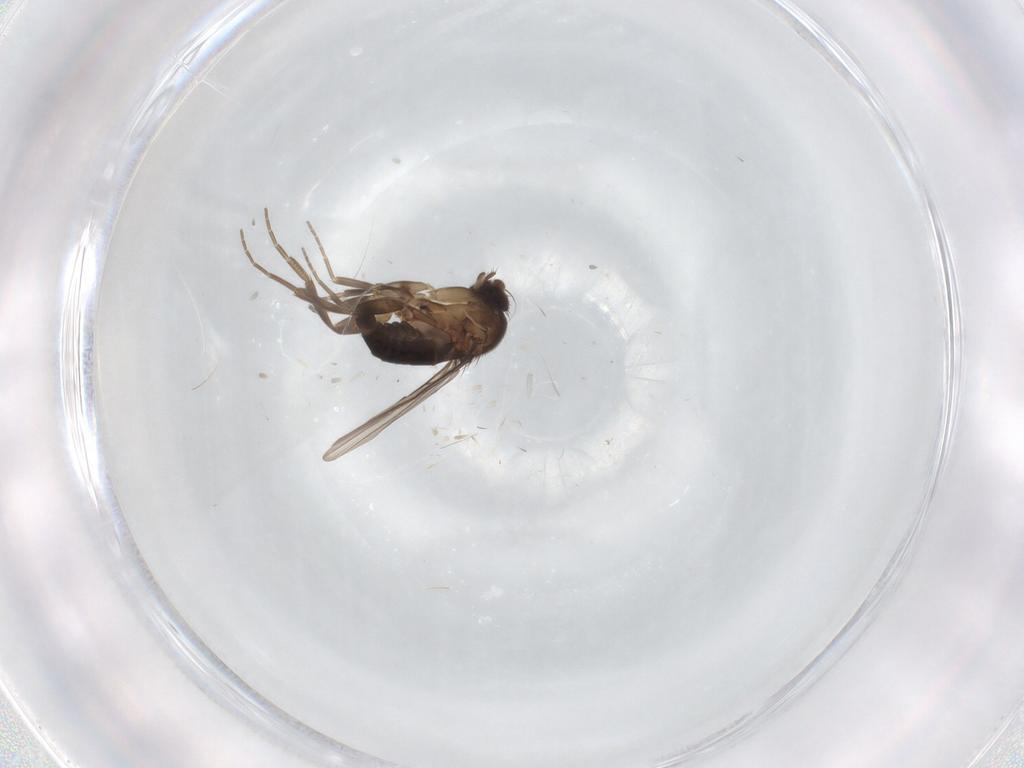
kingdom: Animalia
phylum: Arthropoda
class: Insecta
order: Diptera
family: Phoridae
